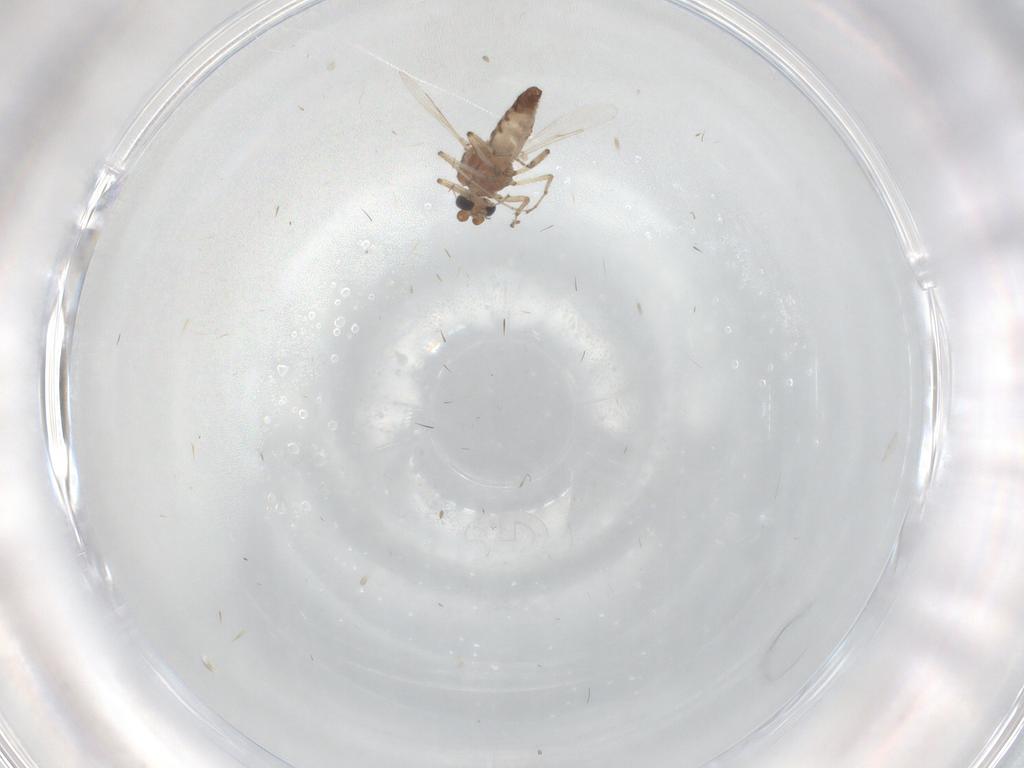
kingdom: Animalia
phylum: Arthropoda
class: Insecta
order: Diptera
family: Ceratopogonidae
